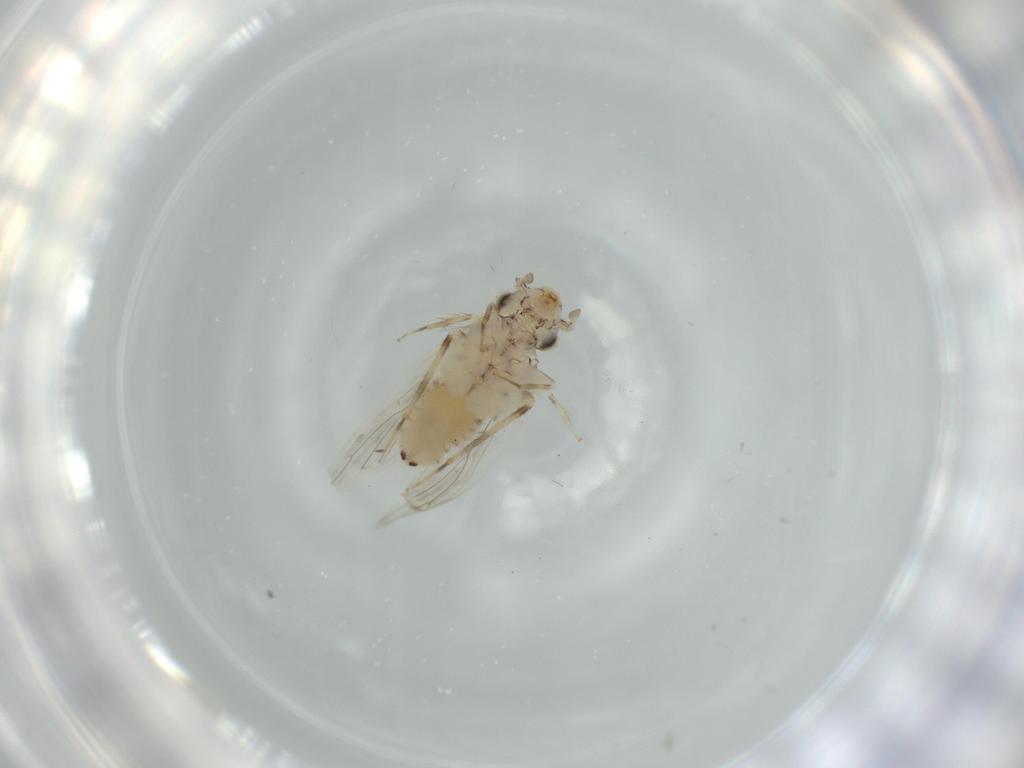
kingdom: Animalia
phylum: Arthropoda
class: Insecta
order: Psocodea
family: Lepidopsocidae
